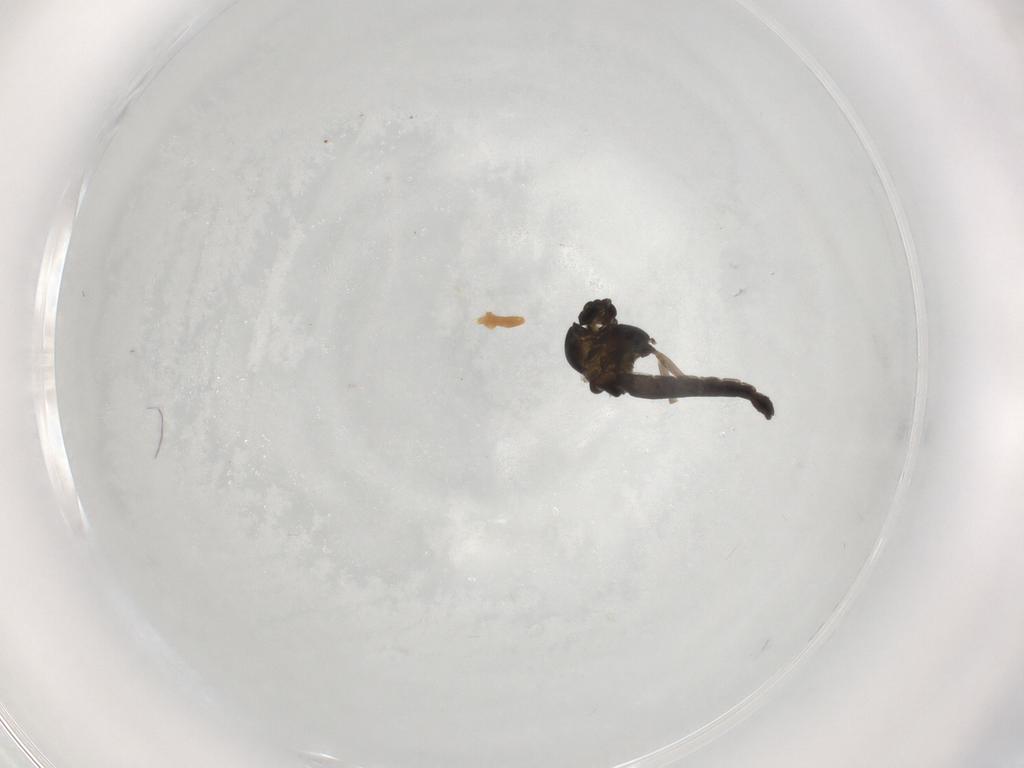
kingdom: Animalia
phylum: Arthropoda
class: Insecta
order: Diptera
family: Anthomyiidae
